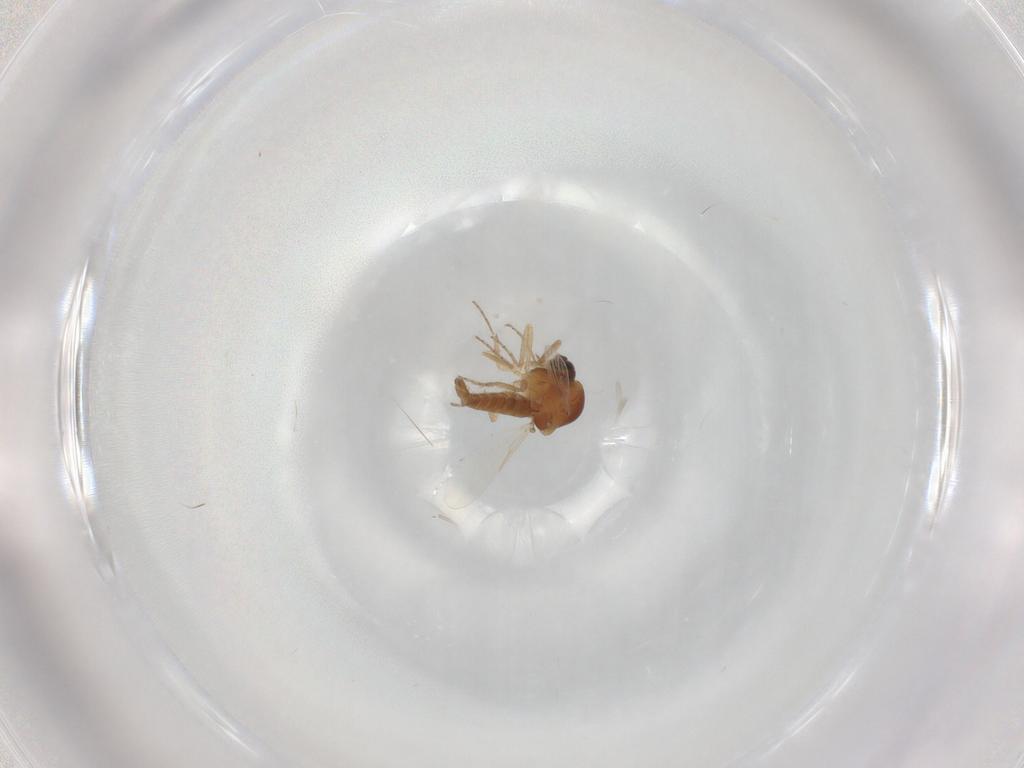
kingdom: Animalia
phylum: Arthropoda
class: Insecta
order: Diptera
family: Ceratopogonidae
